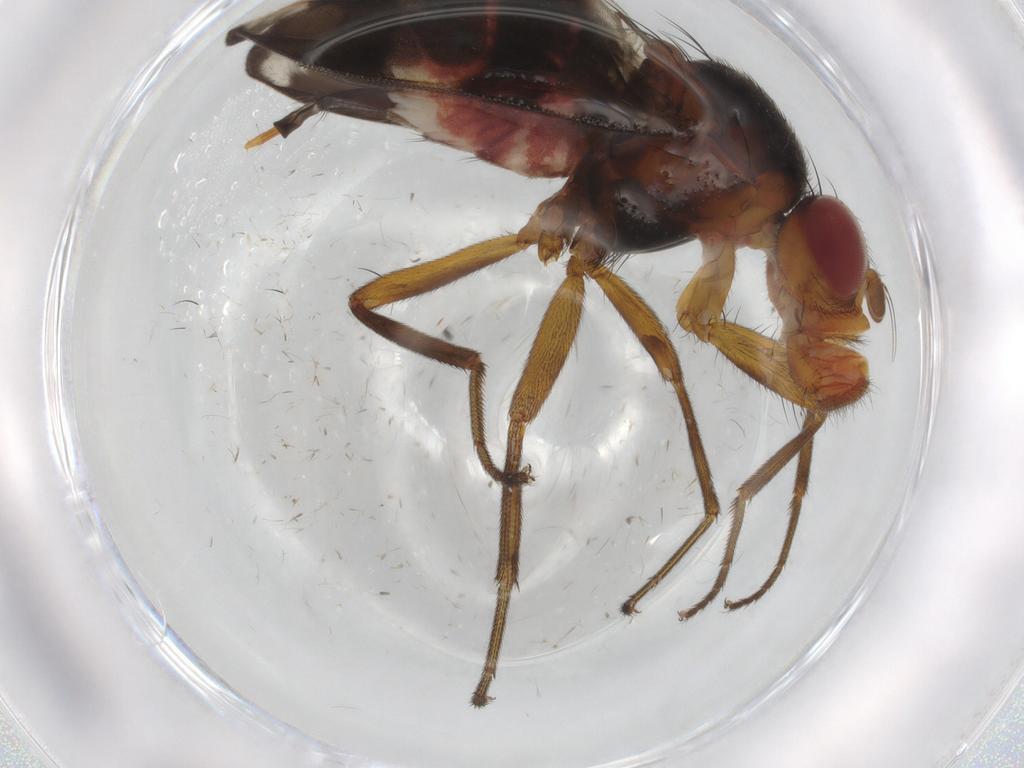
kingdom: Animalia
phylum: Arthropoda
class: Insecta
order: Diptera
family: Richardiidae
